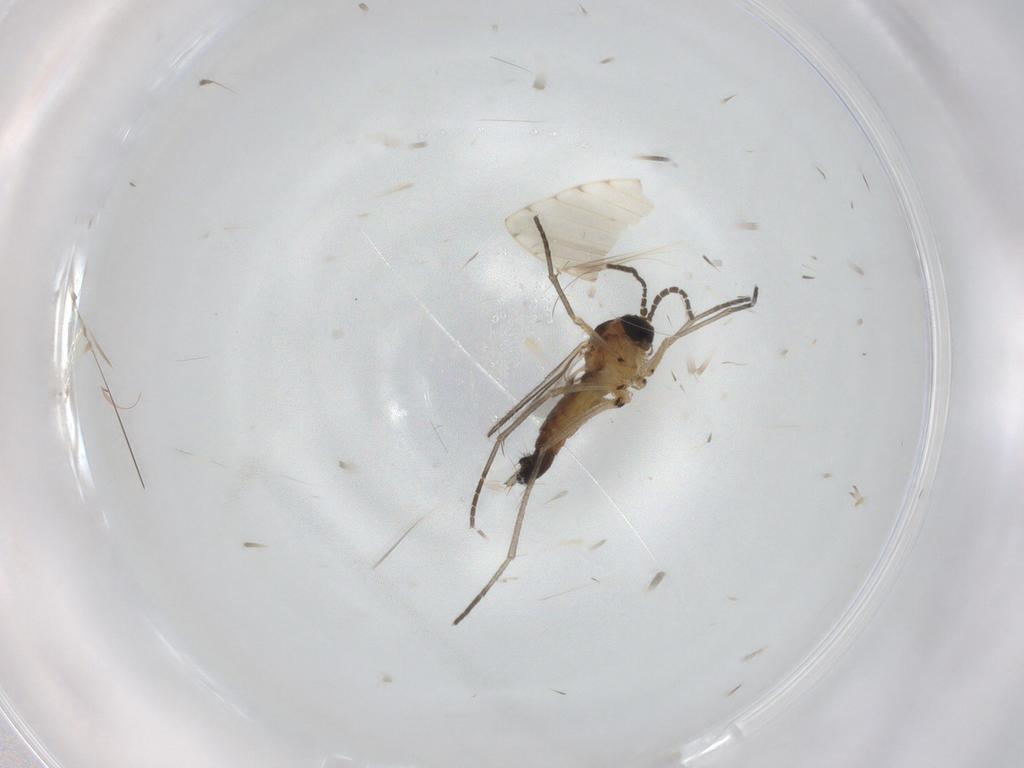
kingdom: Animalia
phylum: Arthropoda
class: Insecta
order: Diptera
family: Sciaridae
